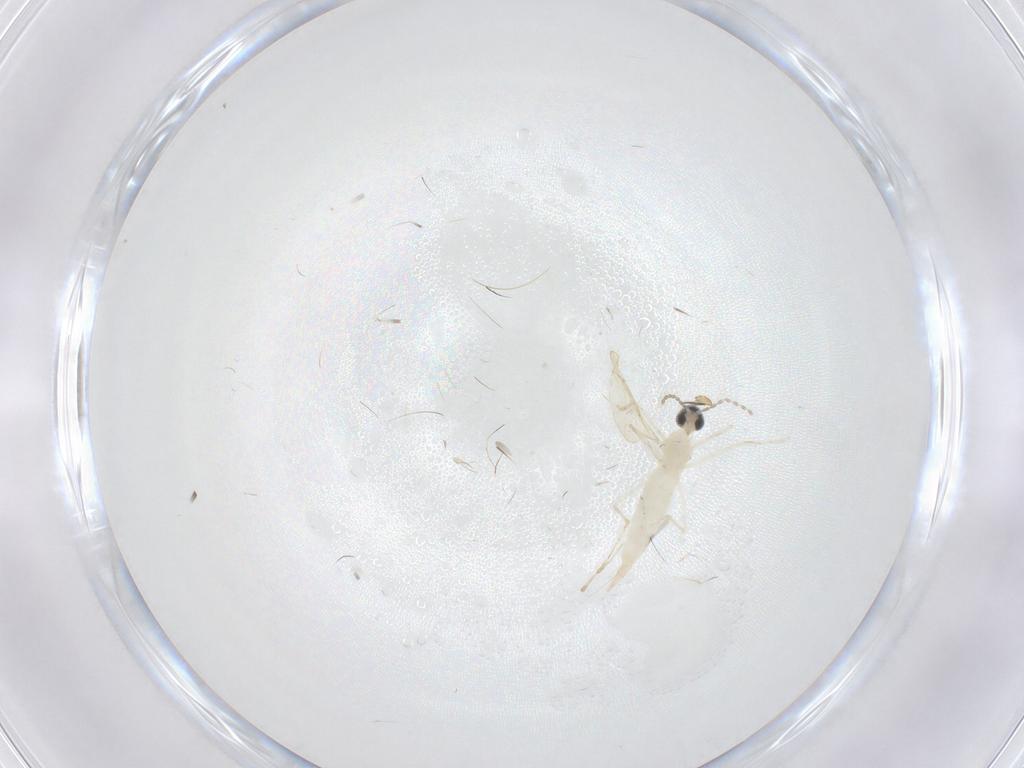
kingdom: Animalia
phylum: Arthropoda
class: Insecta
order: Diptera
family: Cecidomyiidae
